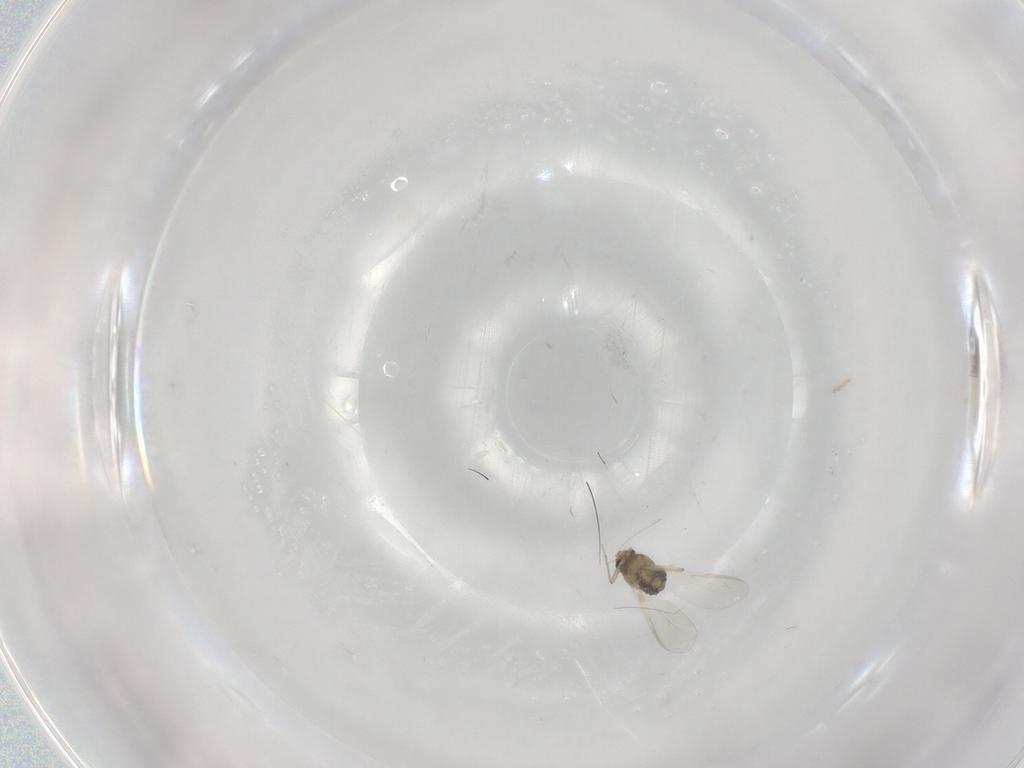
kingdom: Animalia
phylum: Arthropoda
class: Insecta
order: Diptera
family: Chironomidae
